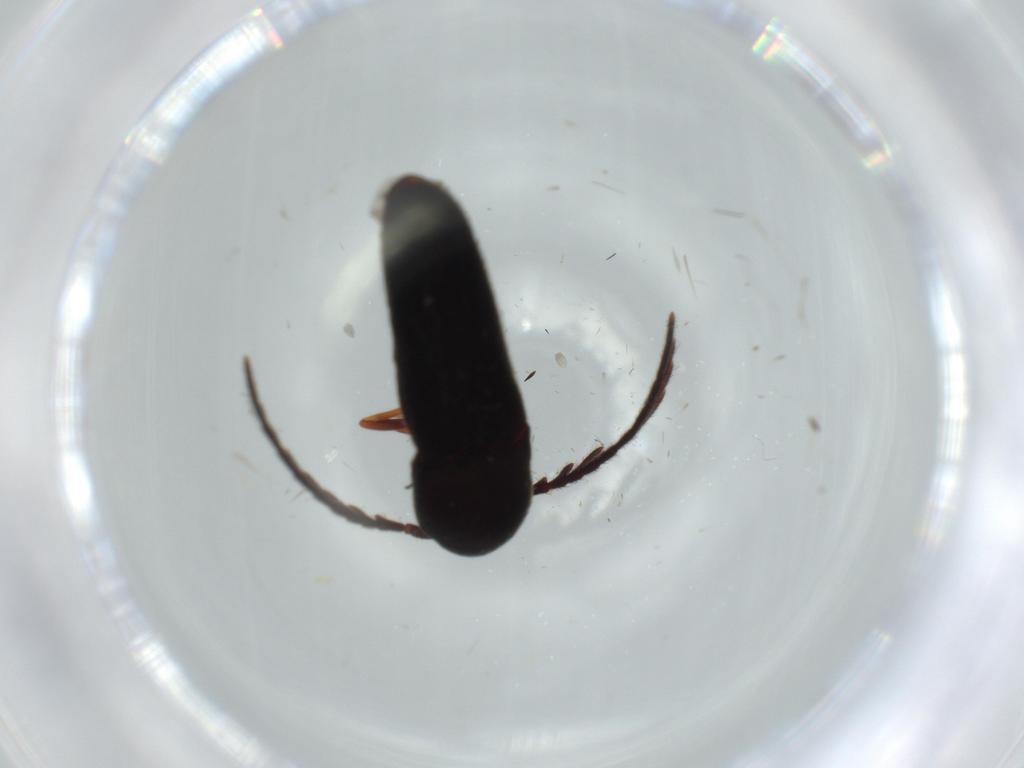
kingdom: Animalia
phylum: Arthropoda
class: Insecta
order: Coleoptera
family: Eucnemidae
